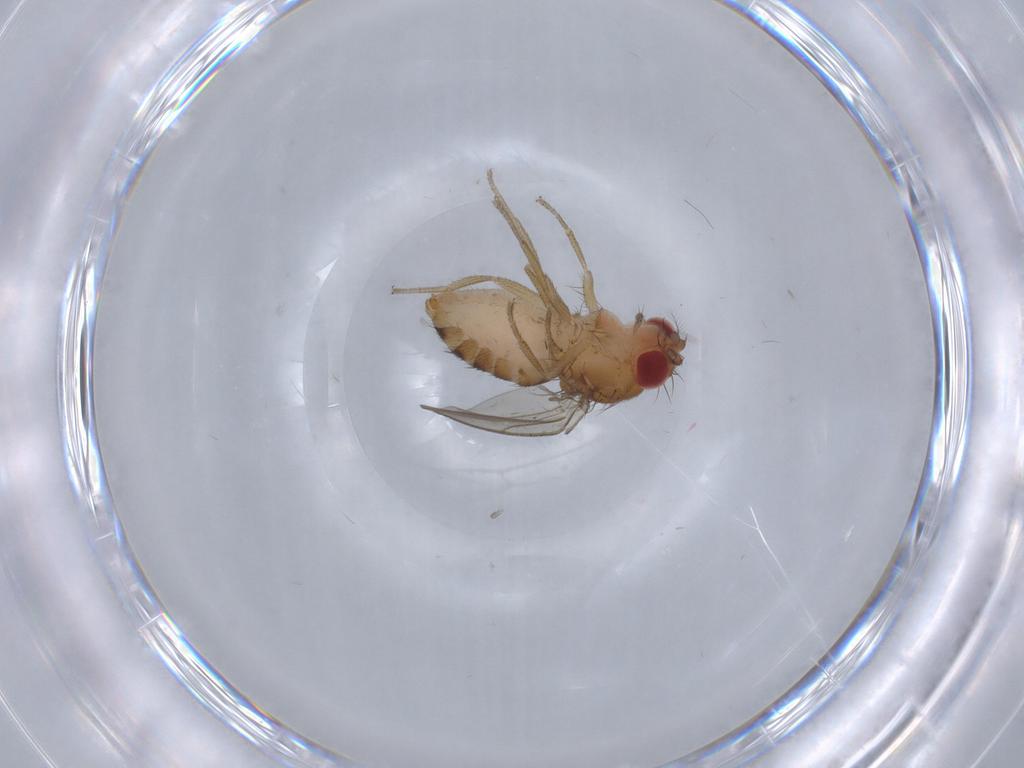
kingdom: Animalia
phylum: Arthropoda
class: Insecta
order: Diptera
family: Drosophilidae
